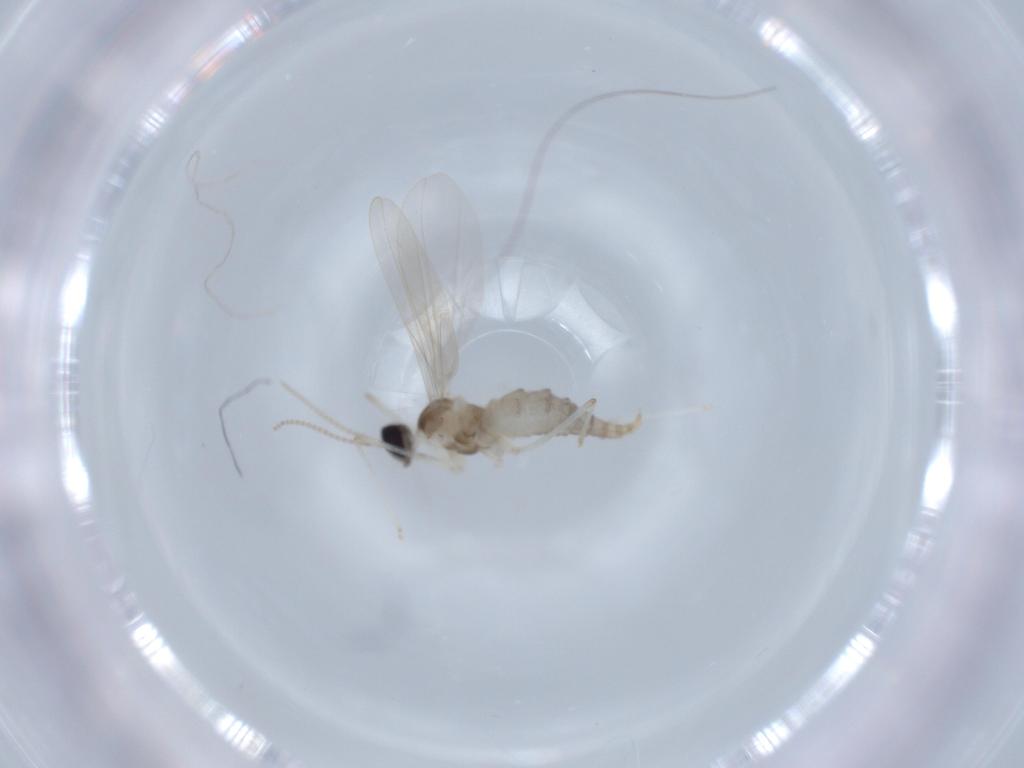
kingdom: Animalia
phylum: Arthropoda
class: Insecta
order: Diptera
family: Cecidomyiidae
